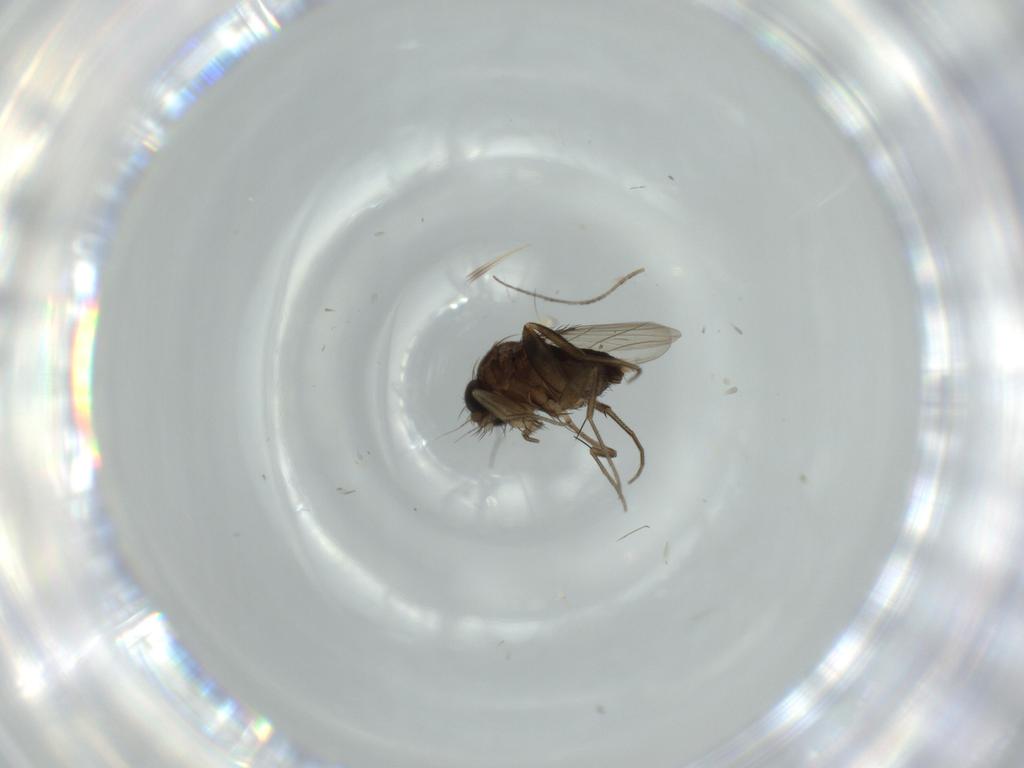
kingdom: Animalia
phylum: Arthropoda
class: Insecta
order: Diptera
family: Phoridae
